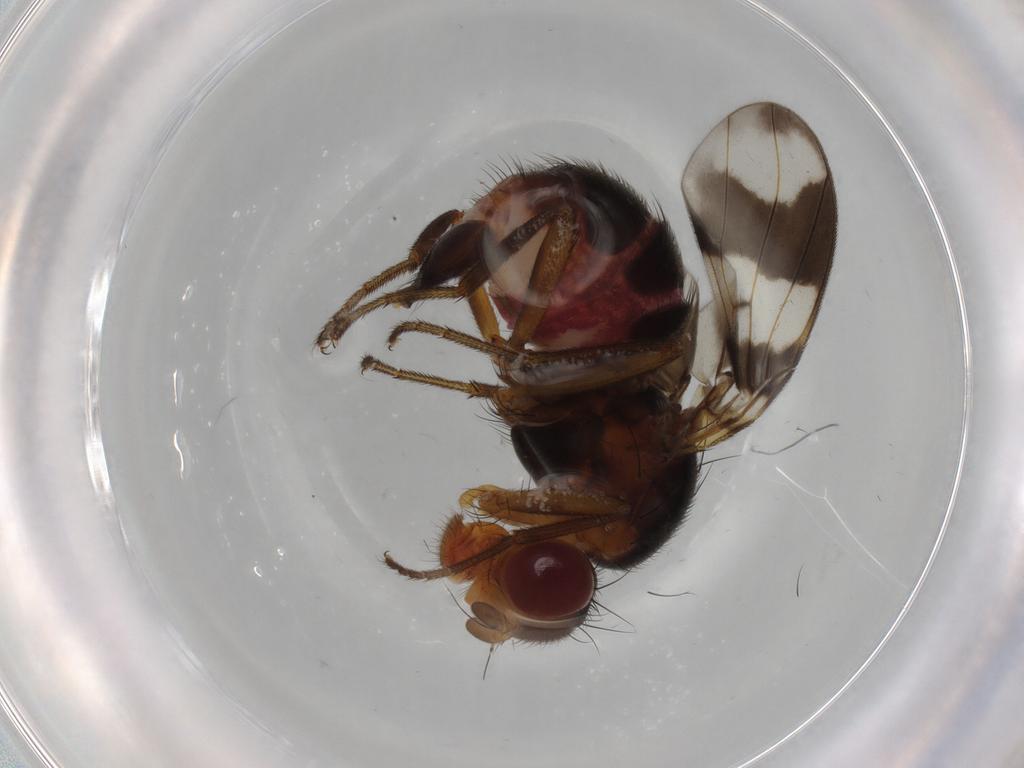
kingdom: Animalia
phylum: Arthropoda
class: Insecta
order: Diptera
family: Richardiidae
